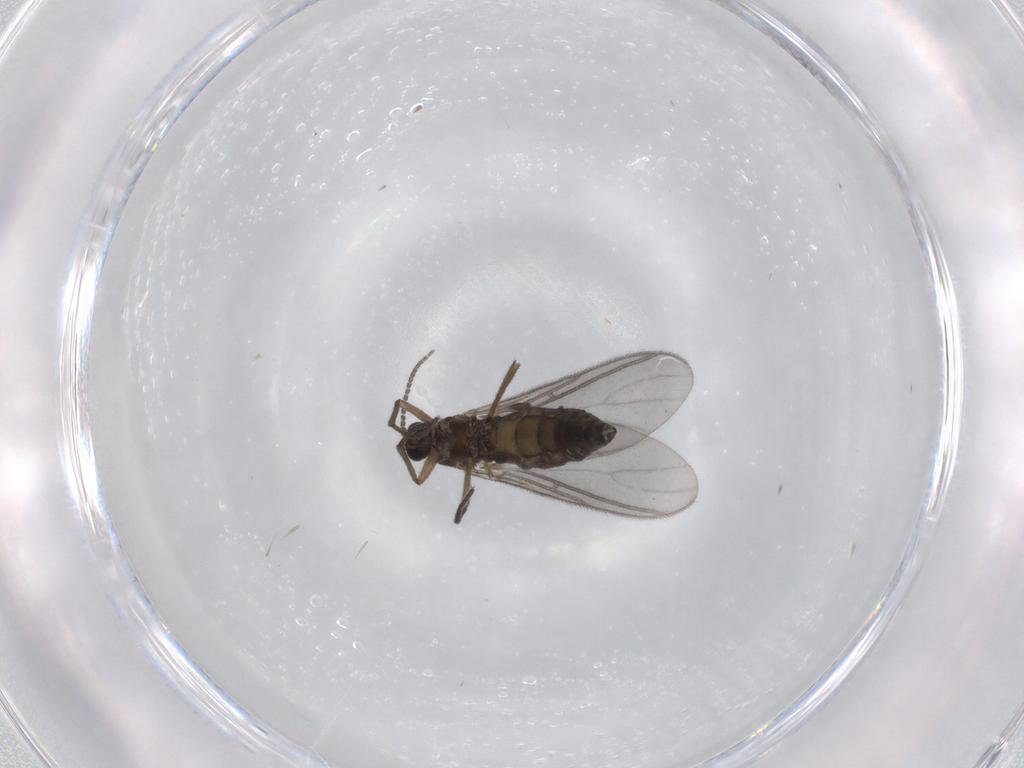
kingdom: Animalia
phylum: Arthropoda
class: Insecta
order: Diptera
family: Sciaridae
